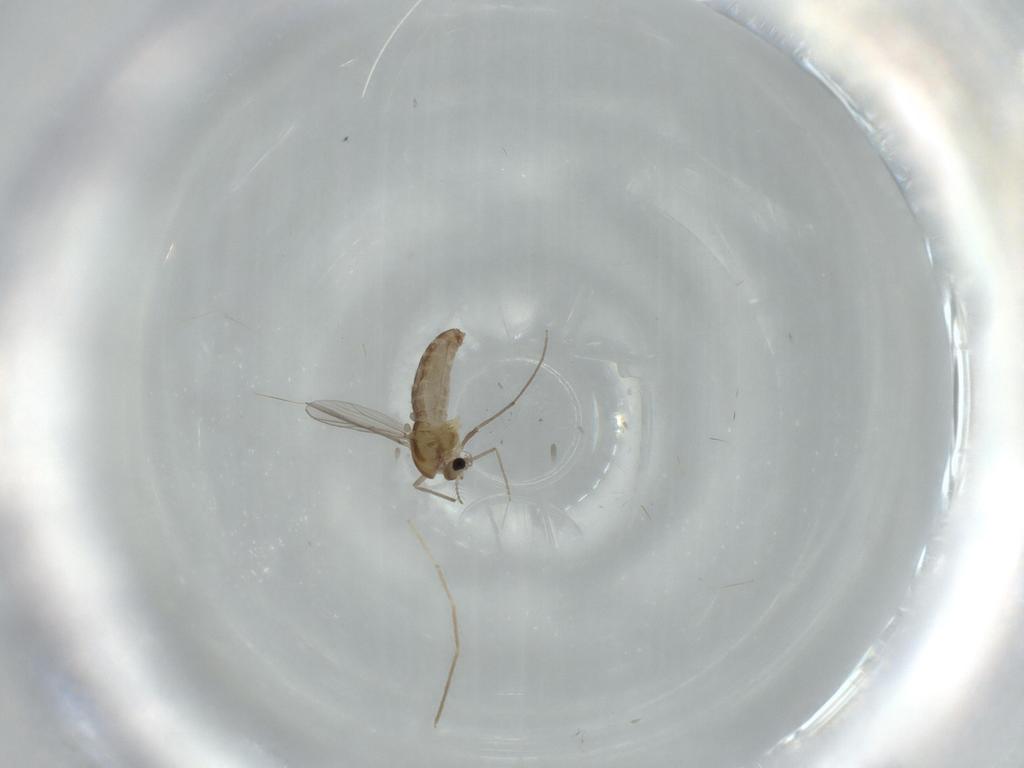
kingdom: Animalia
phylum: Arthropoda
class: Insecta
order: Diptera
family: Chironomidae
